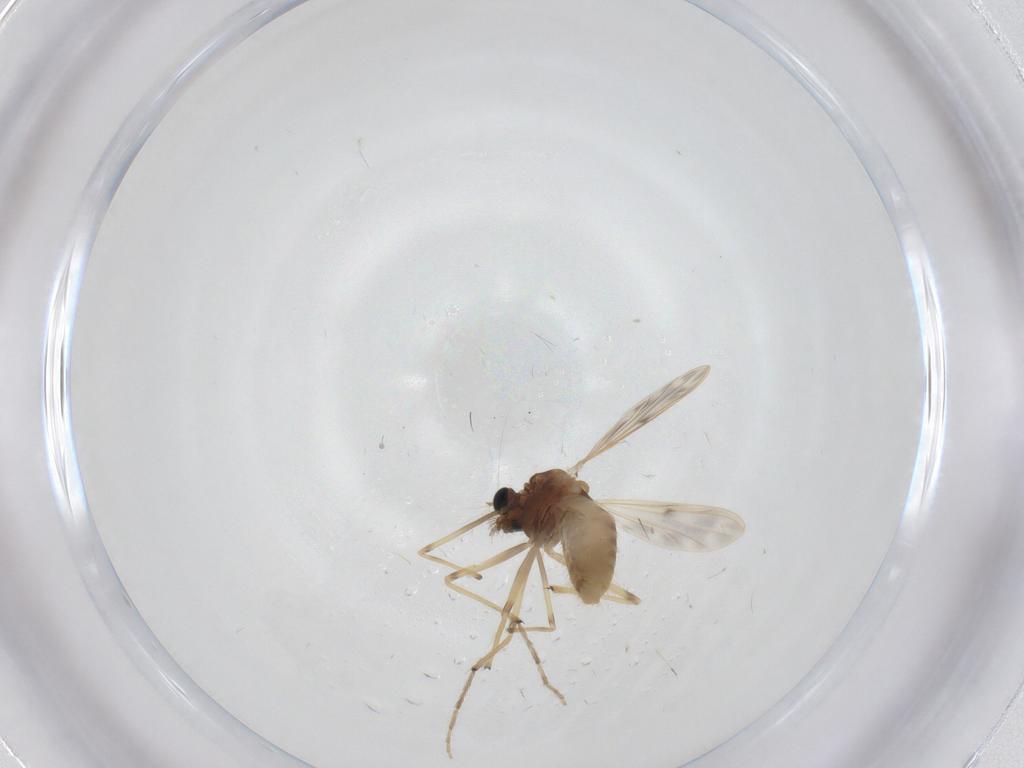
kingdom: Animalia
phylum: Arthropoda
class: Insecta
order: Diptera
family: Chironomidae
